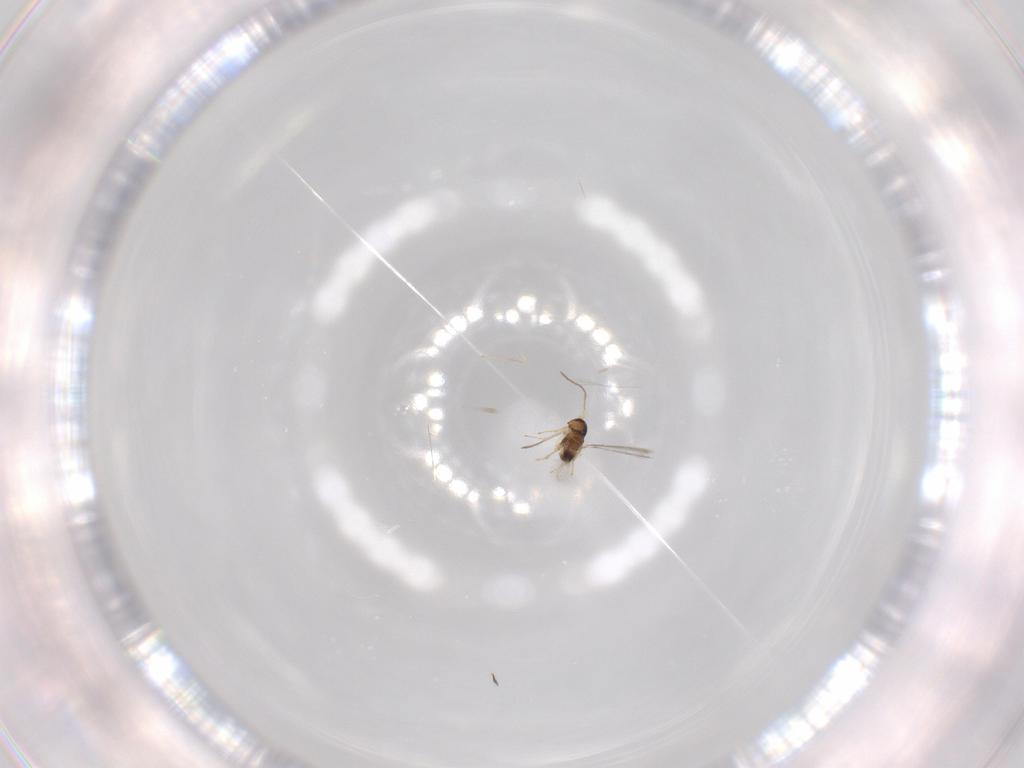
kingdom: Animalia
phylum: Arthropoda
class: Insecta
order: Hymenoptera
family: Mymaridae
